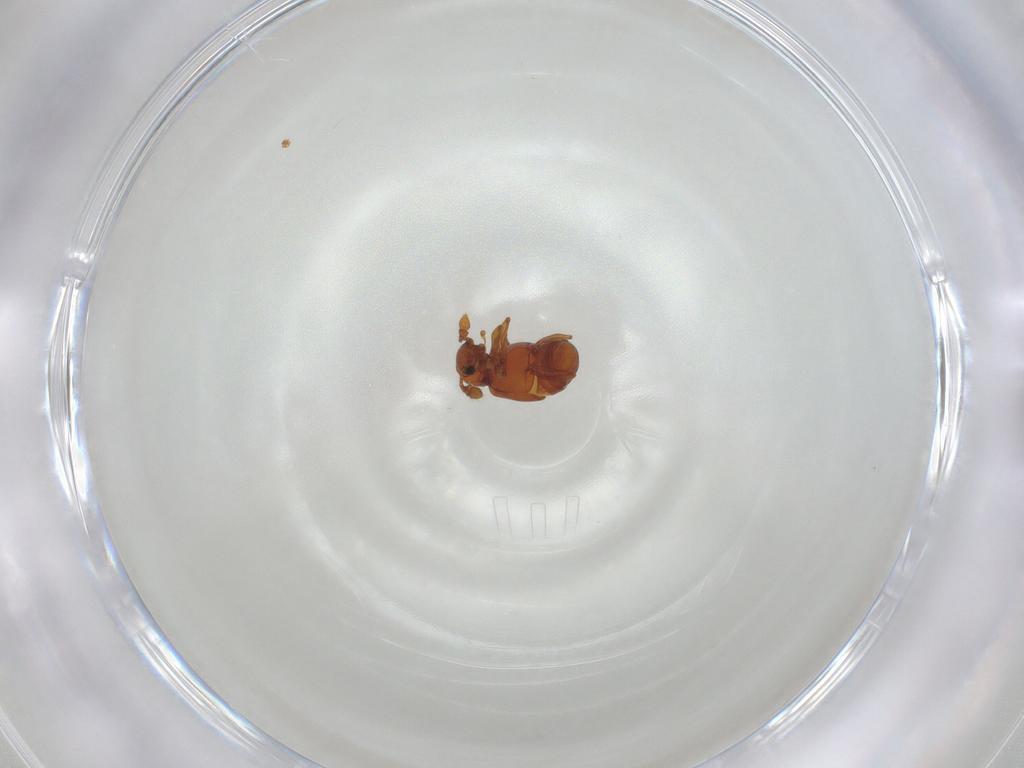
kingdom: Animalia
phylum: Arthropoda
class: Insecta
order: Coleoptera
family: Silvanidae
